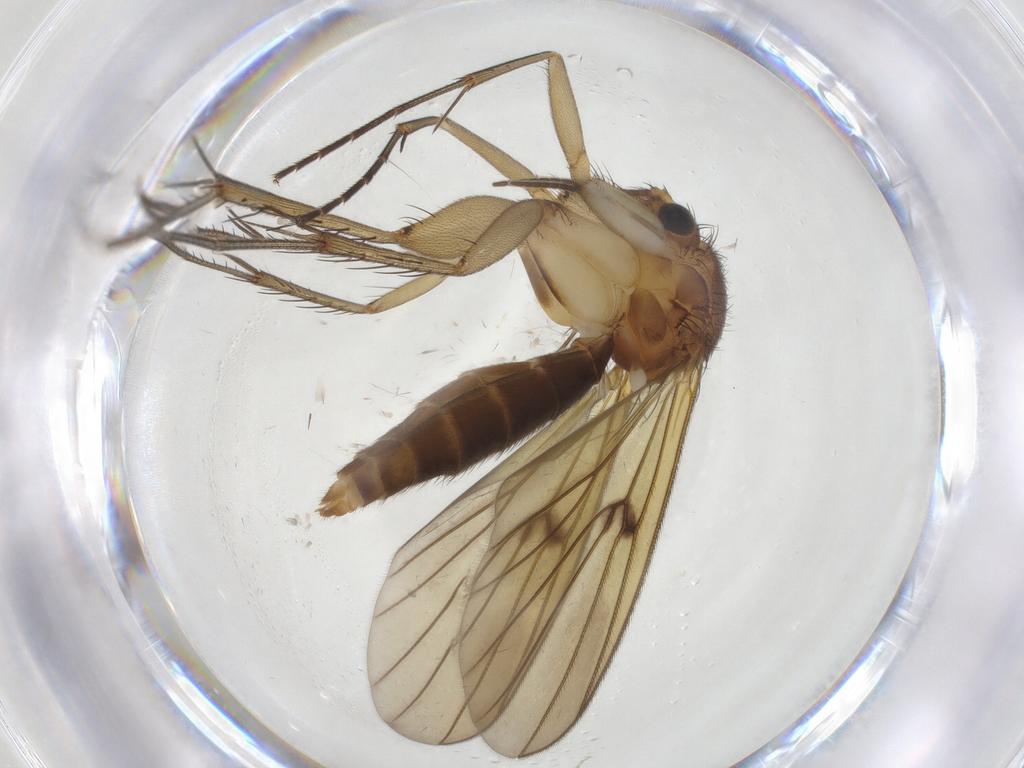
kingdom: Animalia
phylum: Arthropoda
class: Insecta
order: Diptera
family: Mycetophilidae
